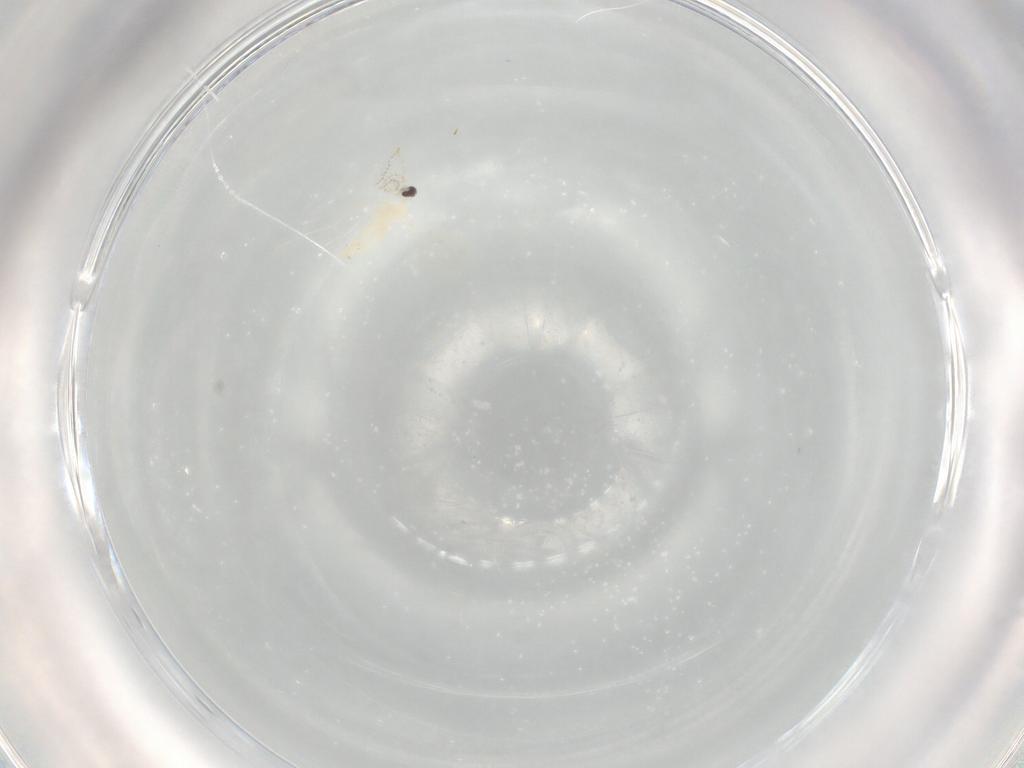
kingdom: Animalia
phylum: Arthropoda
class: Insecta
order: Diptera
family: Cecidomyiidae
